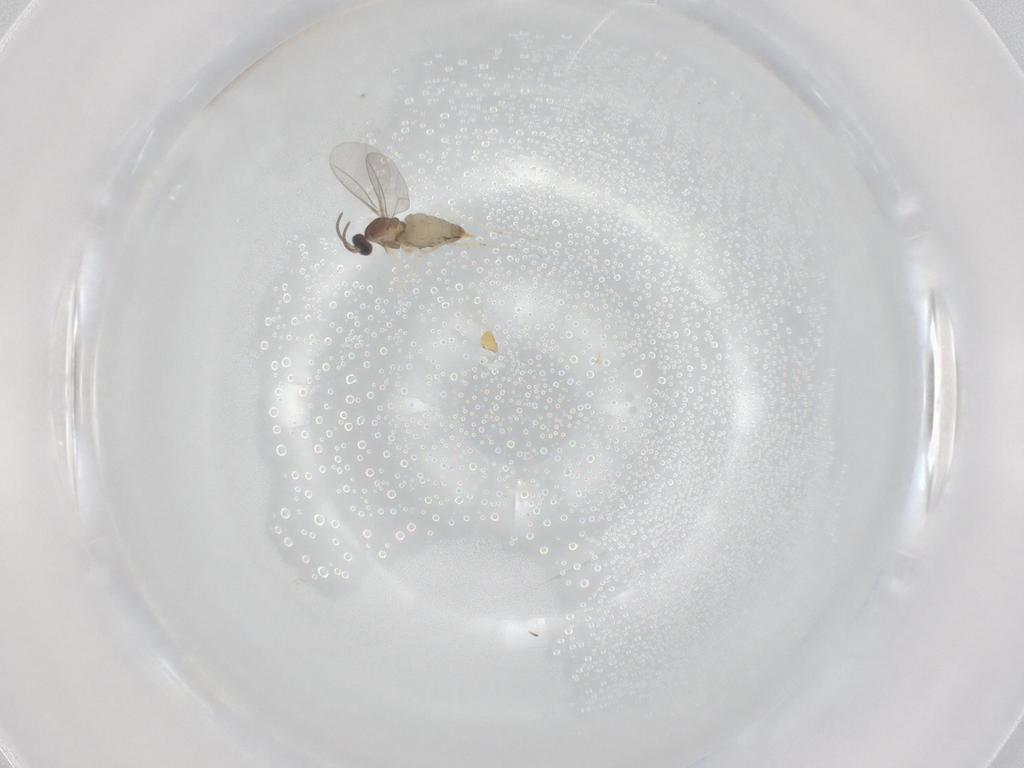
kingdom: Animalia
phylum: Arthropoda
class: Insecta
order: Diptera
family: Cecidomyiidae
